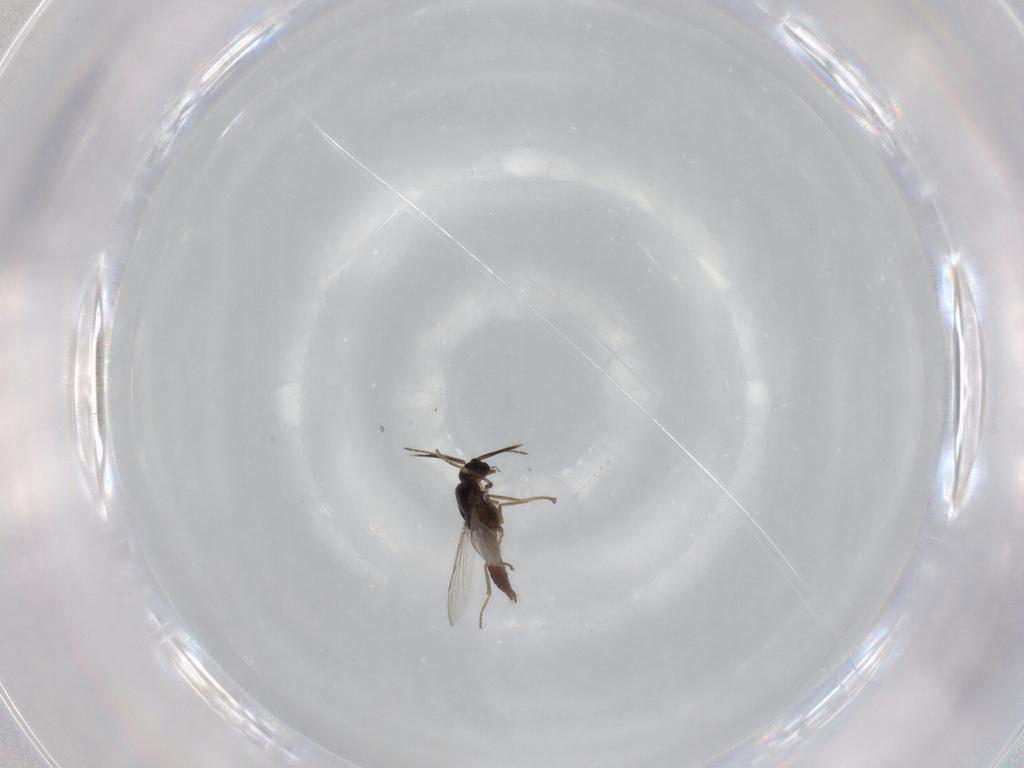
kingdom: Animalia
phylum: Arthropoda
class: Insecta
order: Diptera
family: Ceratopogonidae
